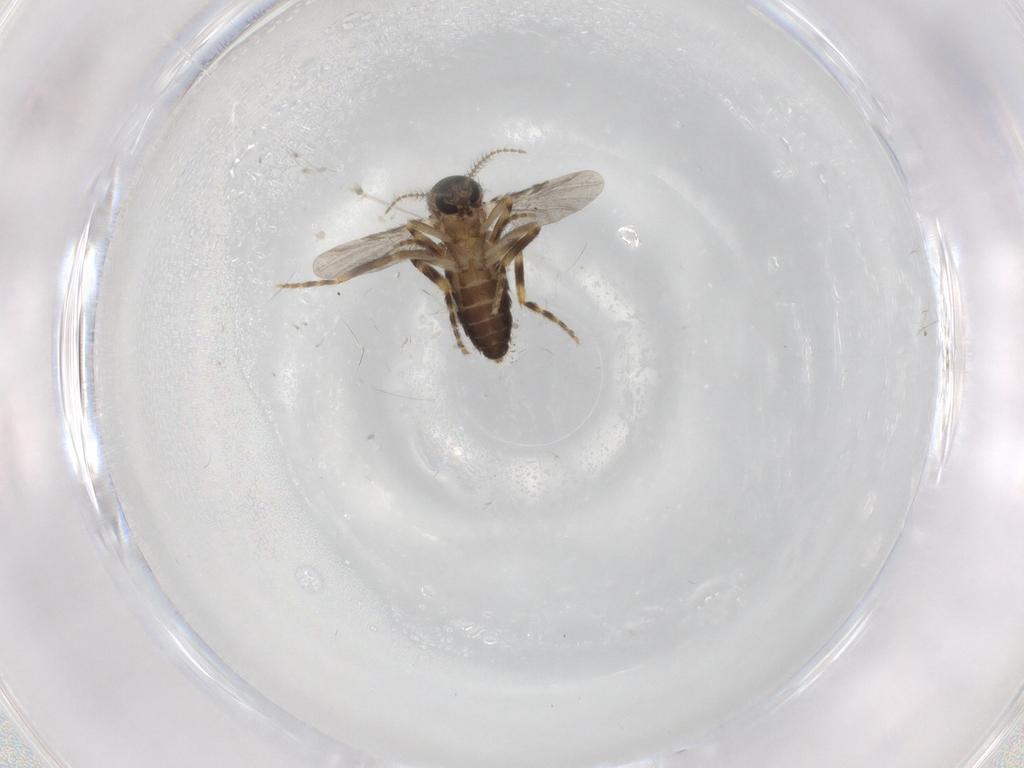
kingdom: Animalia
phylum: Arthropoda
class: Insecta
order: Diptera
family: Ceratopogonidae
